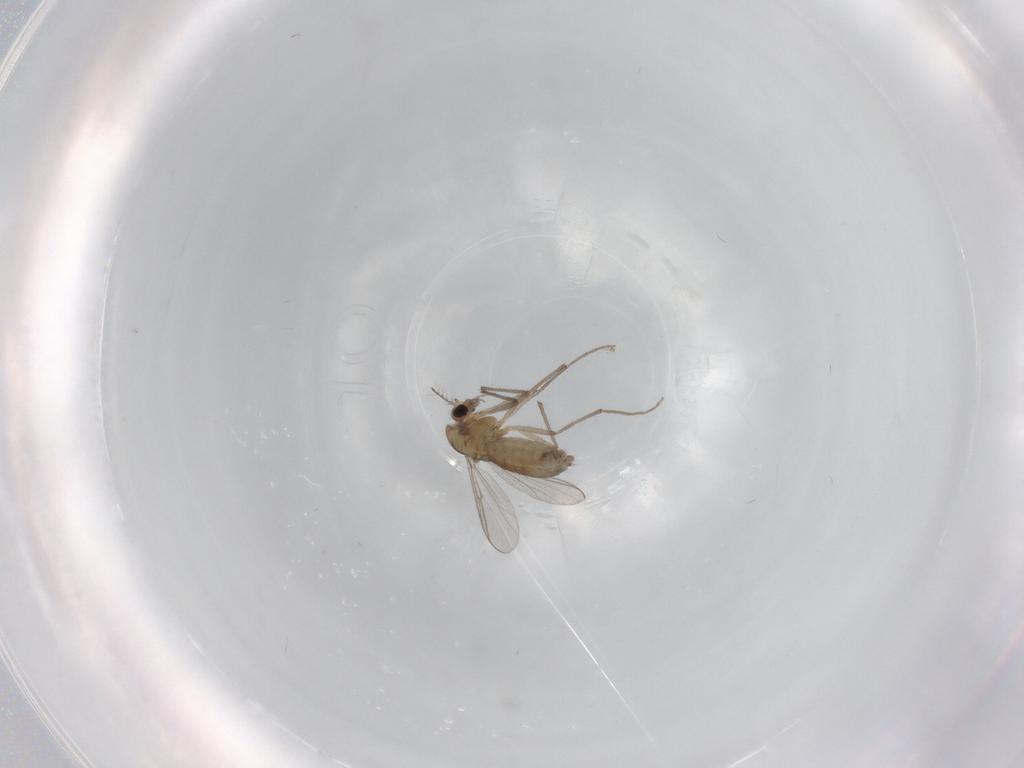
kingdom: Animalia
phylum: Arthropoda
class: Insecta
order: Diptera
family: Chironomidae
